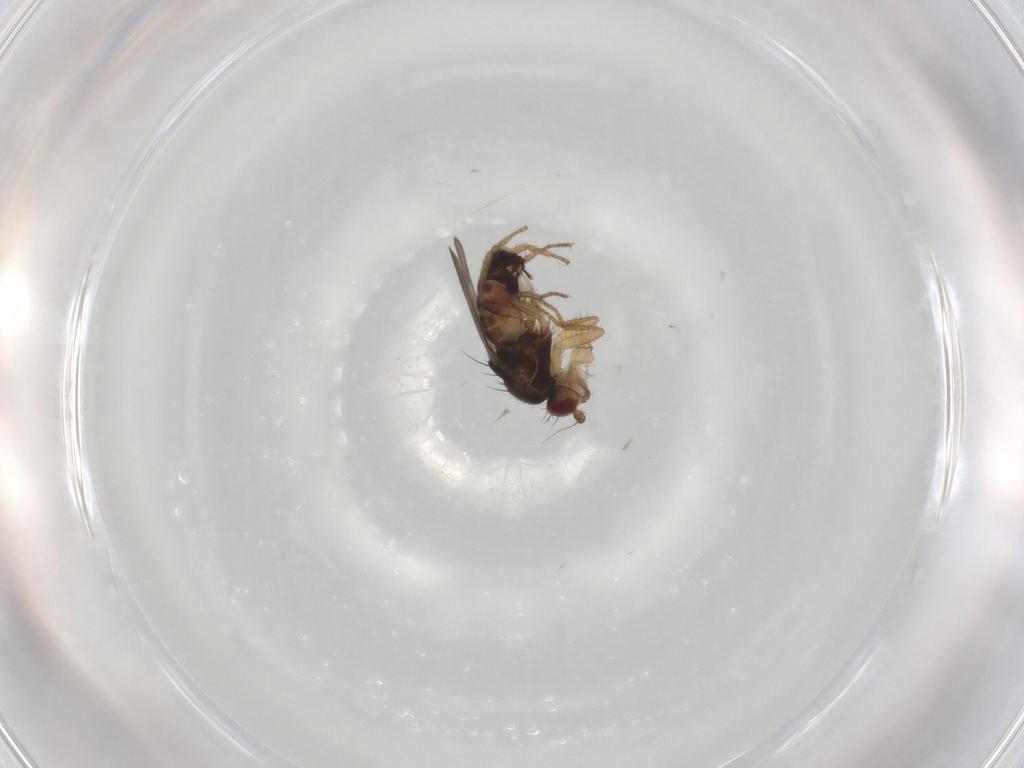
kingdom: Animalia
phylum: Arthropoda
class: Insecta
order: Diptera
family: Sphaeroceridae
